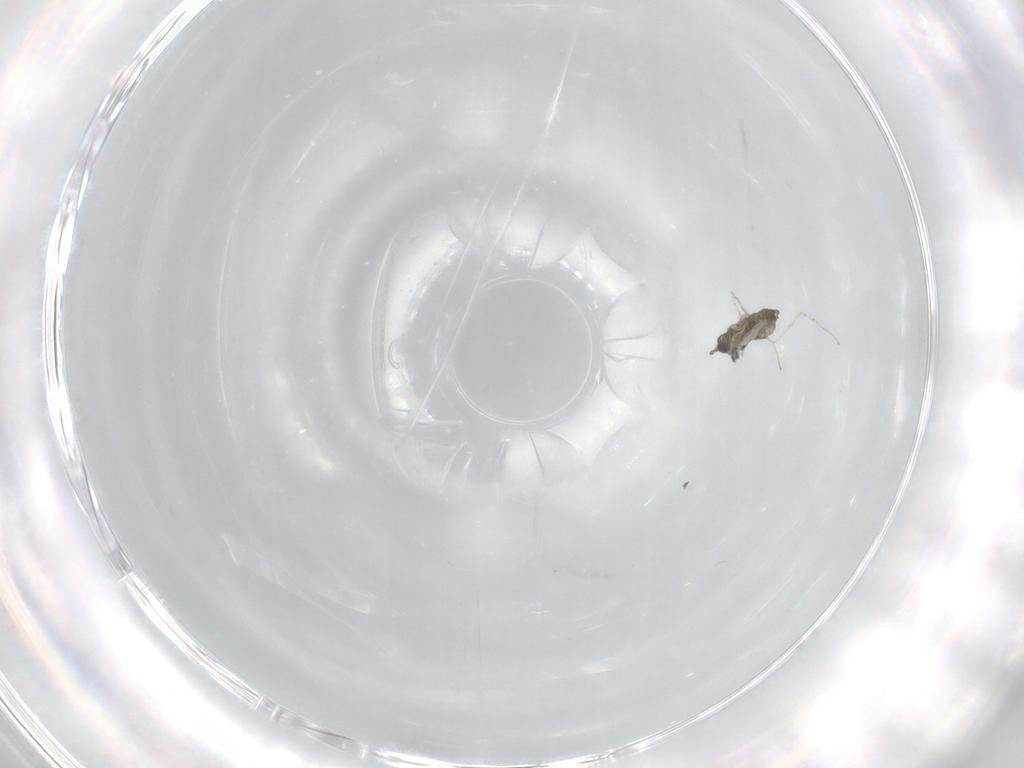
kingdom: Animalia
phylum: Arthropoda
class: Insecta
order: Diptera
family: Cecidomyiidae
